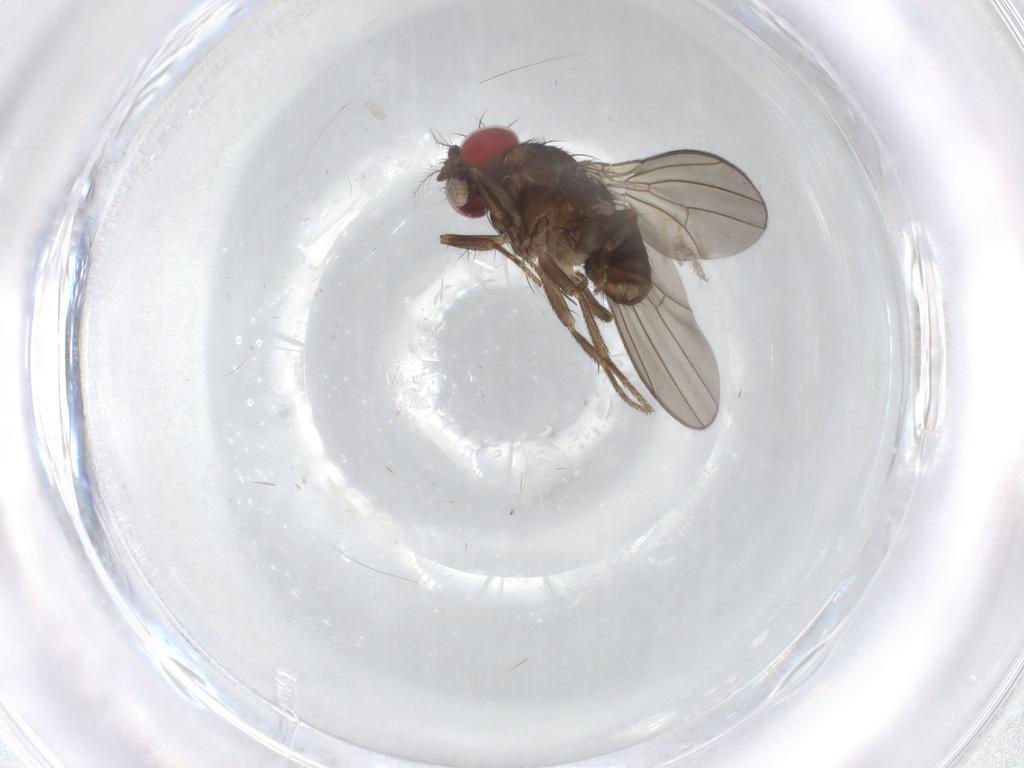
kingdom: Animalia
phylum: Arthropoda
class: Insecta
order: Diptera
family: Drosophilidae
